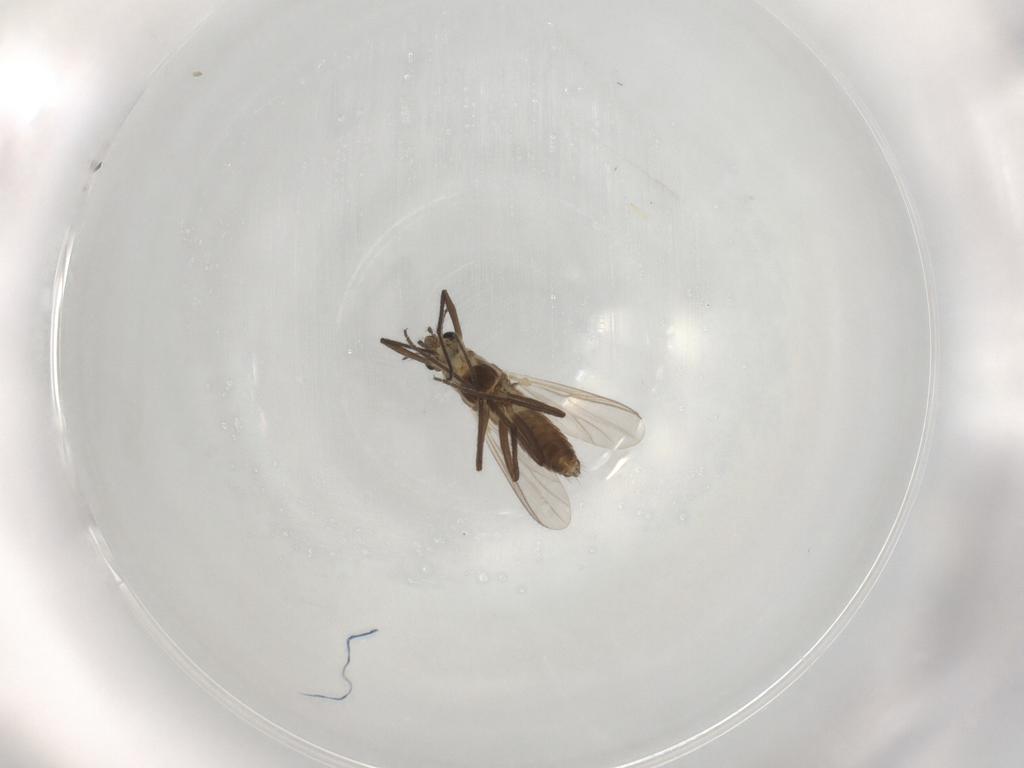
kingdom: Animalia
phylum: Arthropoda
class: Insecta
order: Diptera
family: Chironomidae
